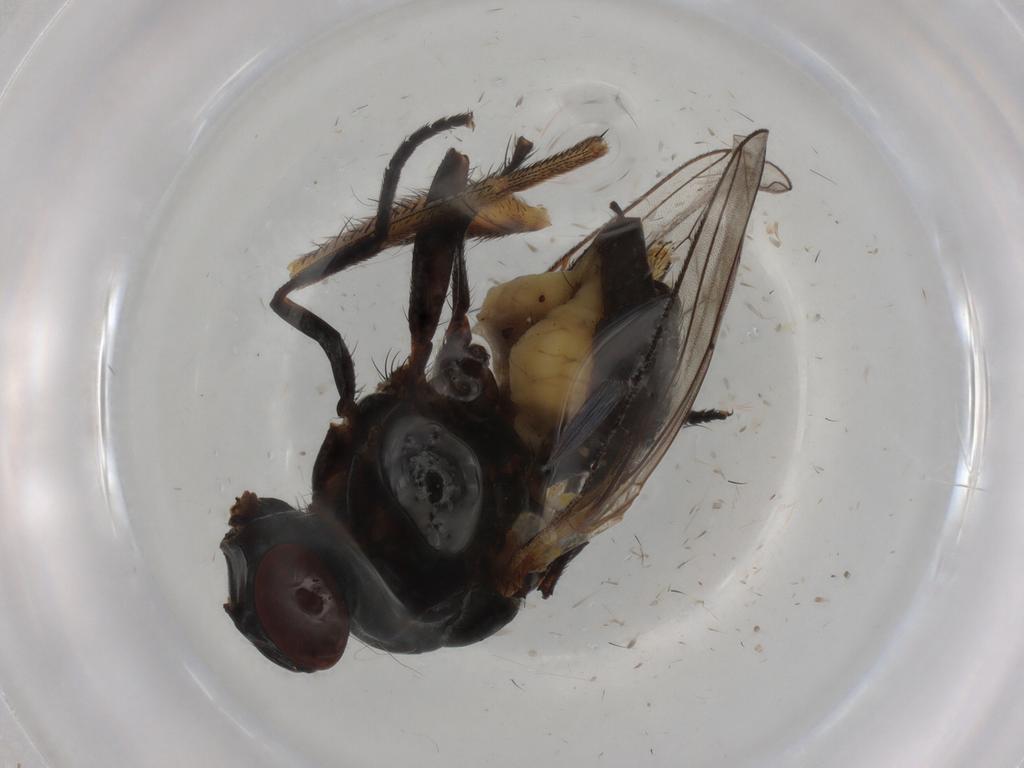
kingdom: Animalia
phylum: Arthropoda
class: Insecta
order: Diptera
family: Glossinidae
